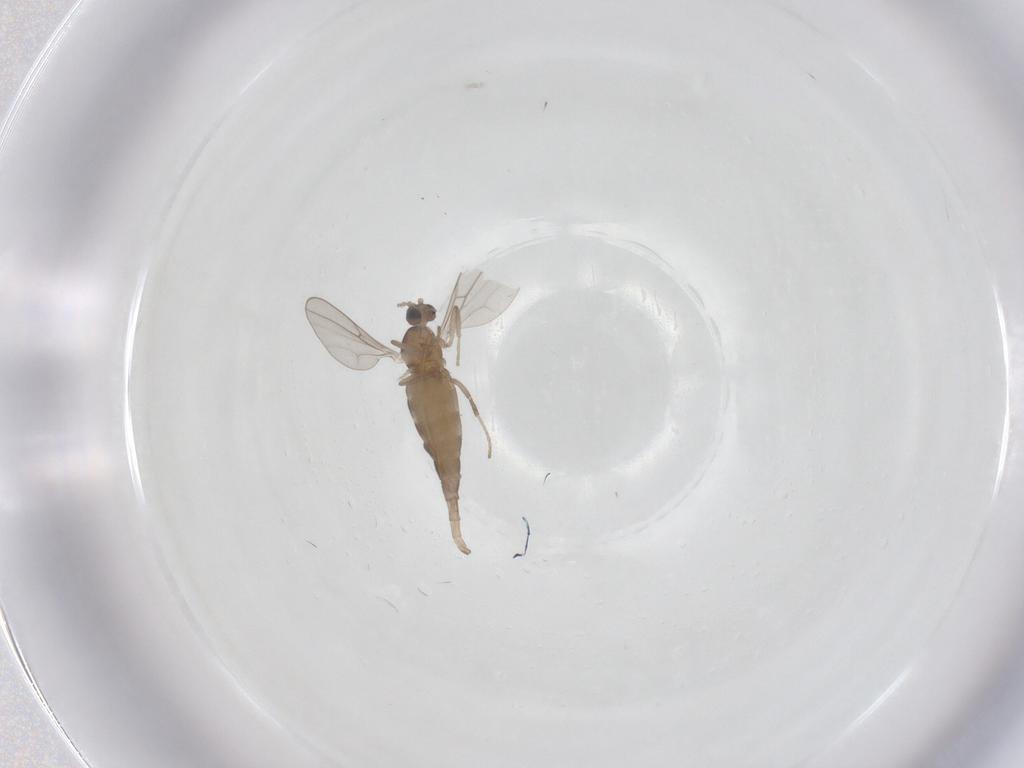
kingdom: Animalia
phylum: Arthropoda
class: Insecta
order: Diptera
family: Cecidomyiidae
